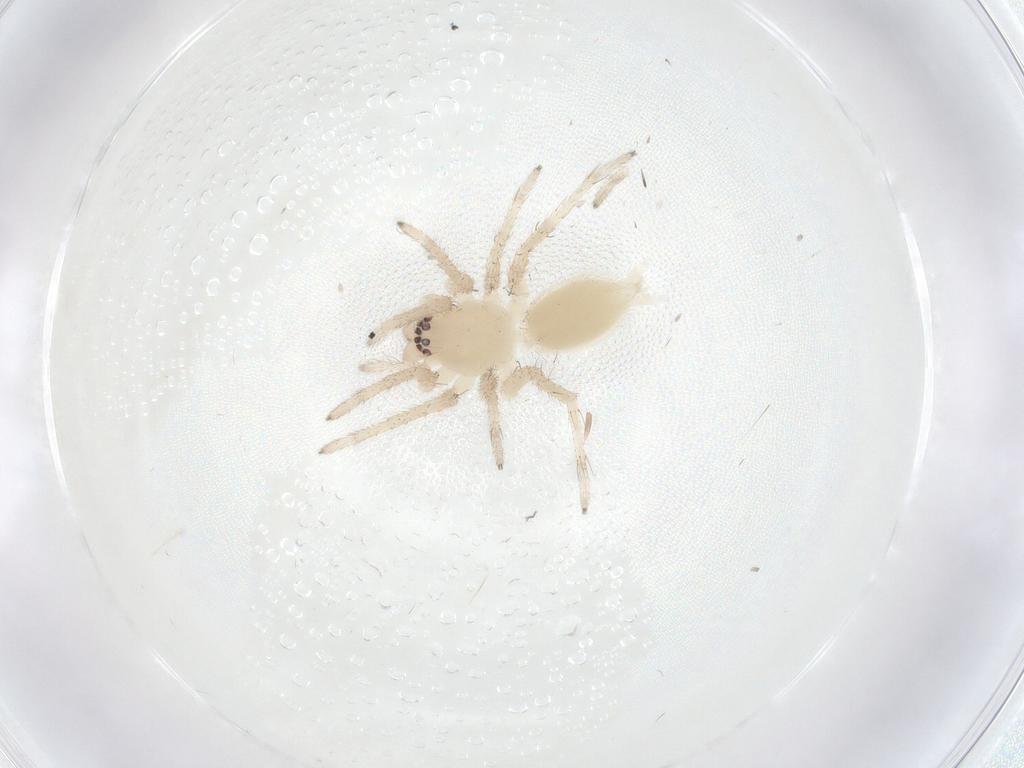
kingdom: Animalia
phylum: Arthropoda
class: Arachnida
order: Araneae
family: Clubionidae
